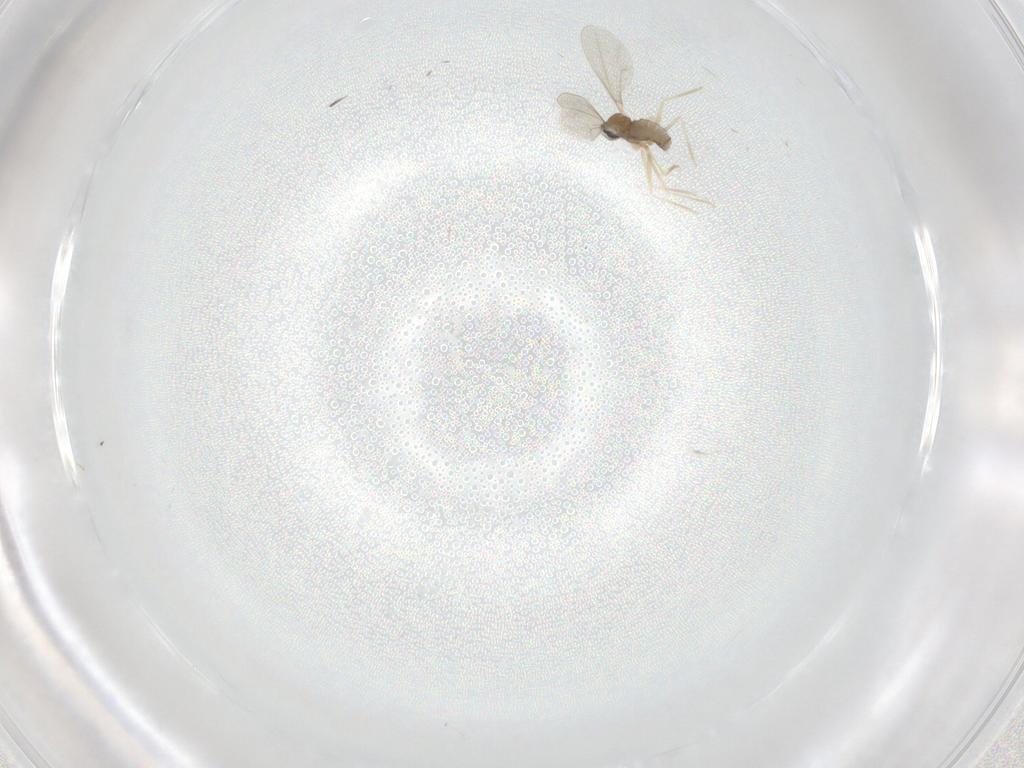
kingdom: Animalia
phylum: Arthropoda
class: Insecta
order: Diptera
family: Cecidomyiidae
